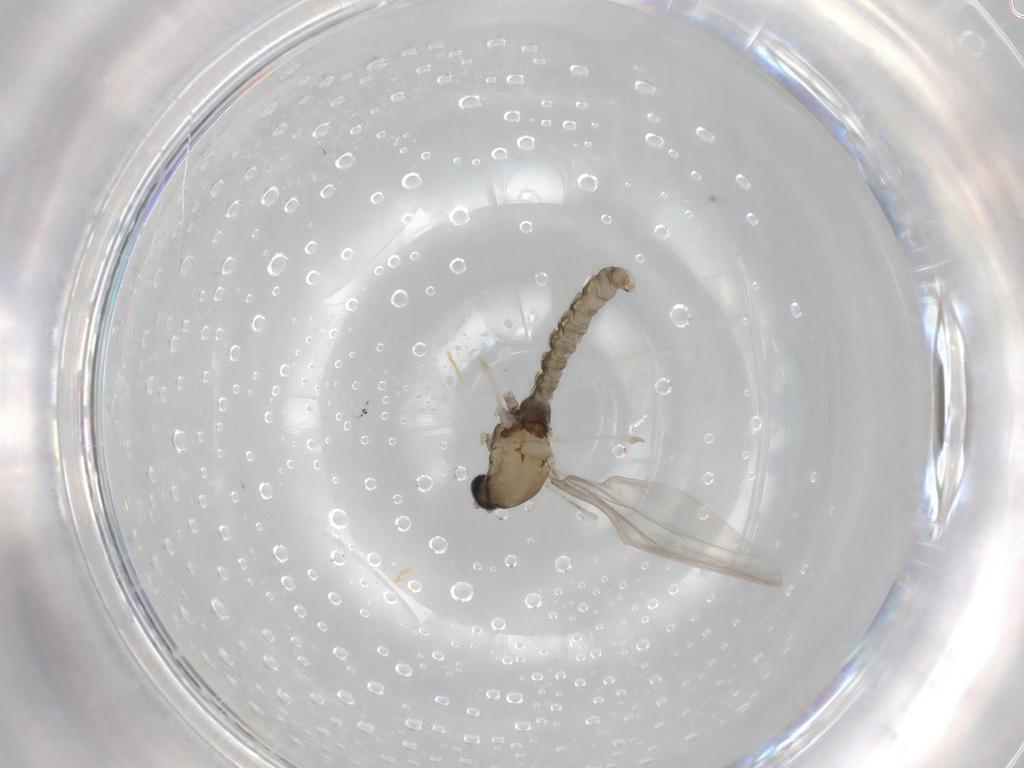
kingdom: Animalia
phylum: Arthropoda
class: Insecta
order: Diptera
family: Cecidomyiidae
